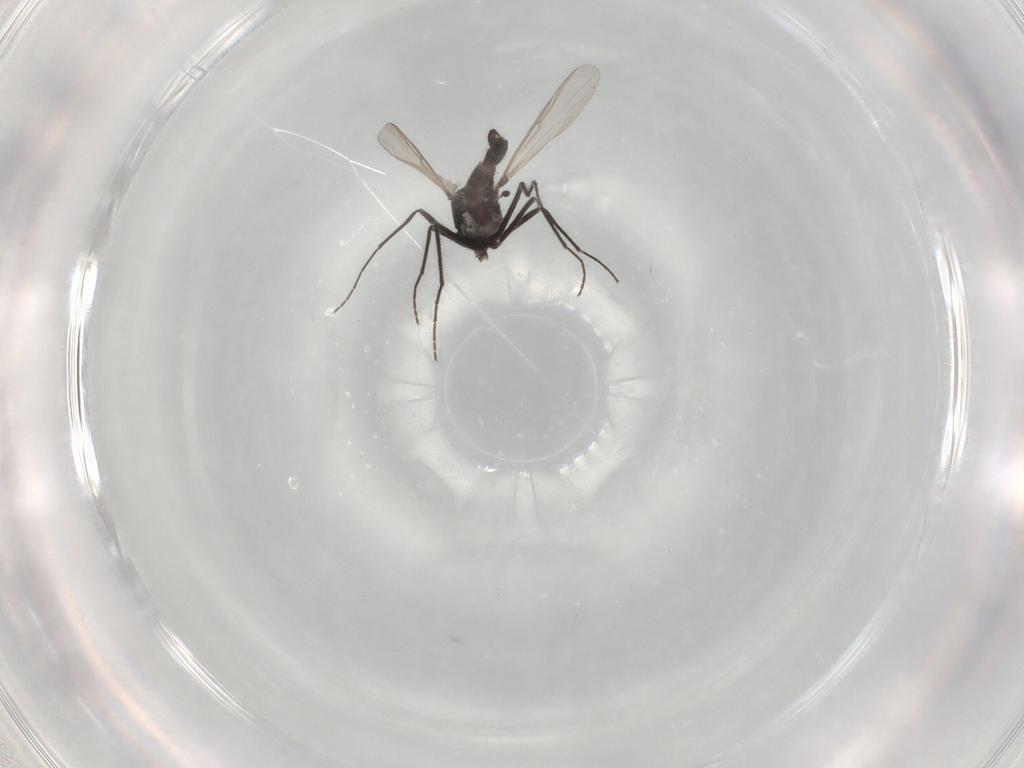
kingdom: Animalia
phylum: Arthropoda
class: Insecta
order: Diptera
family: Chironomidae
